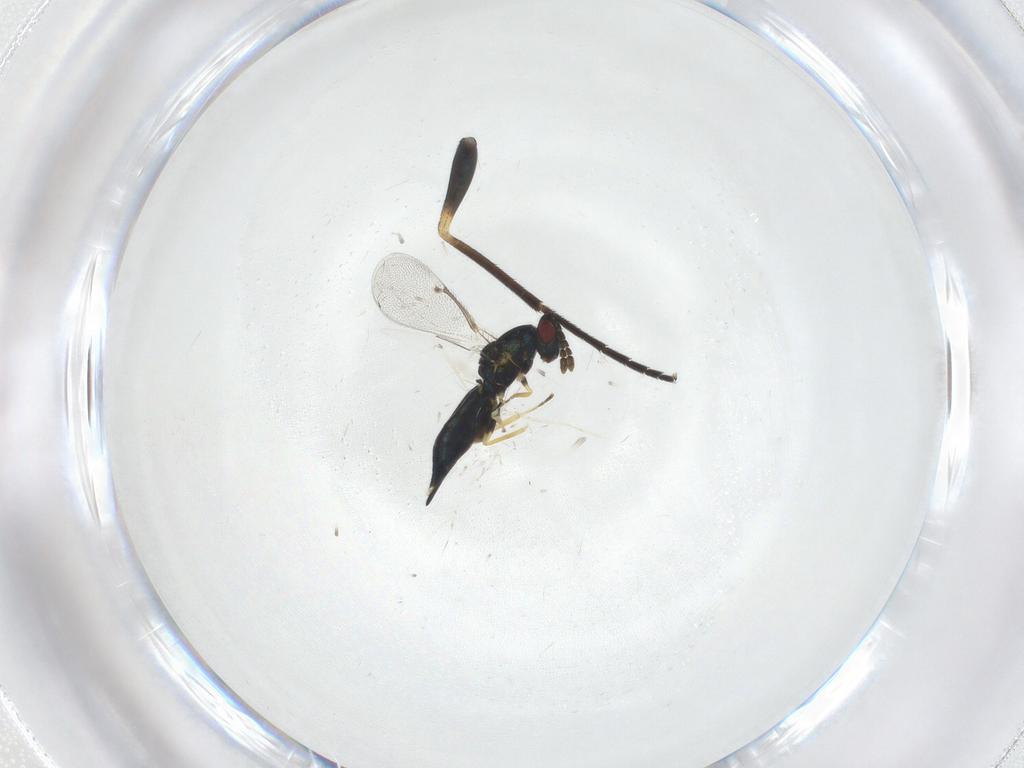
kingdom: Animalia
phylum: Arthropoda
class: Insecta
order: Hymenoptera
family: Eulophidae
